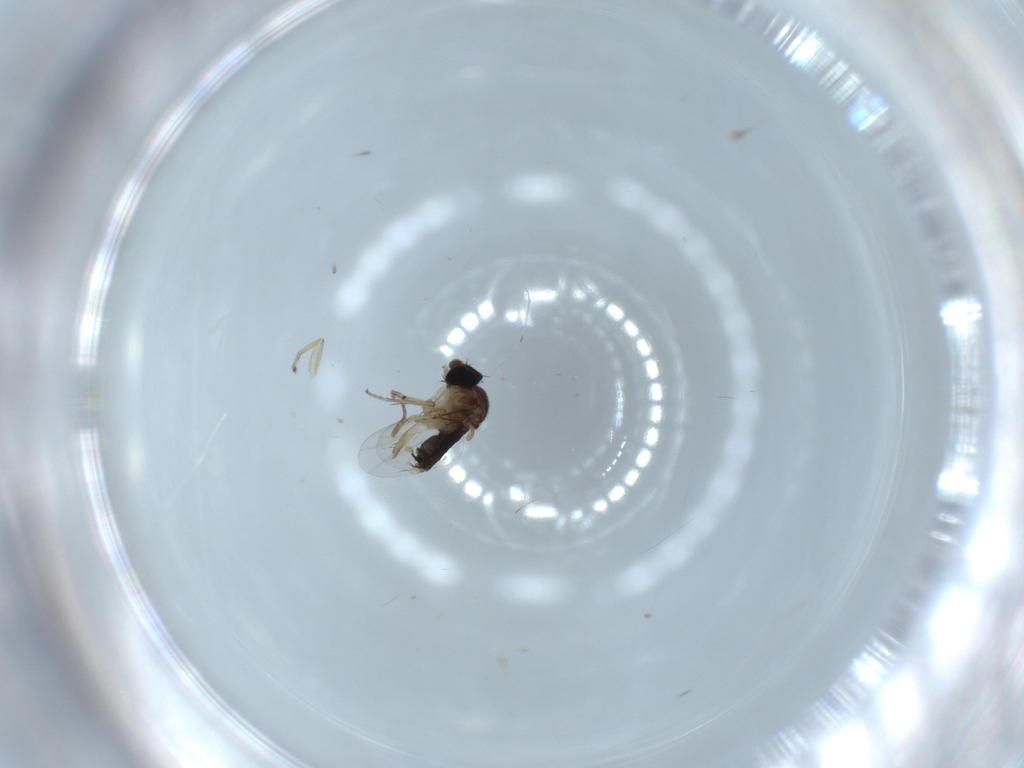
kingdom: Animalia
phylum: Arthropoda
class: Insecta
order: Diptera
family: Phoridae
